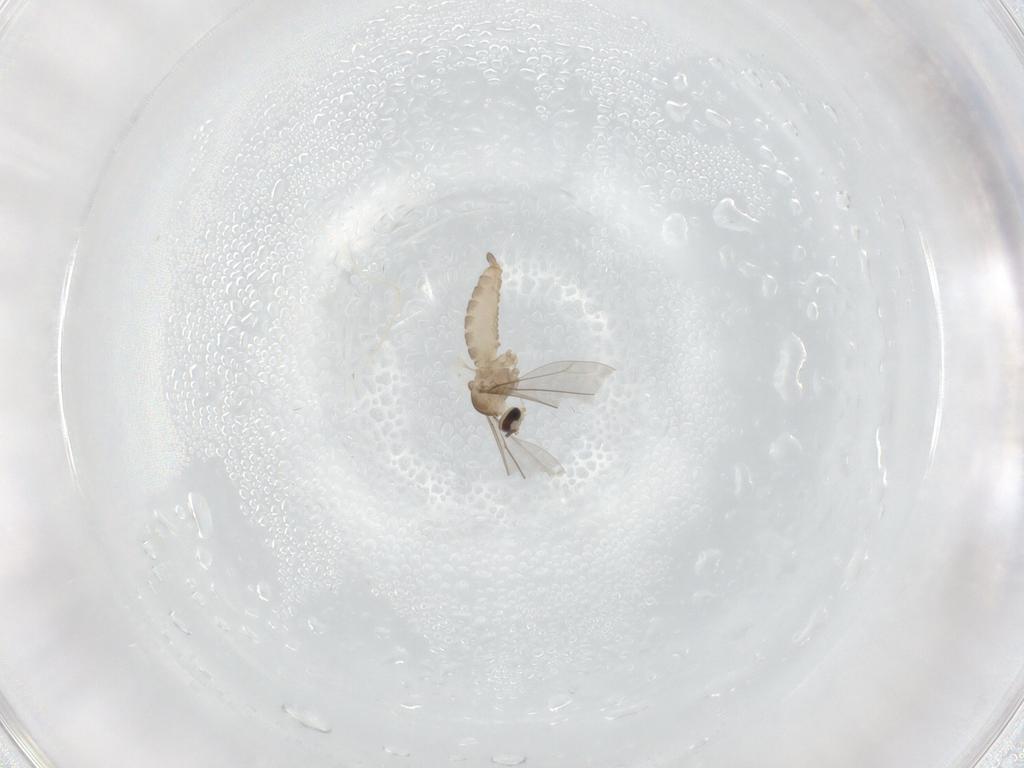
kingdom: Animalia
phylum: Arthropoda
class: Insecta
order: Diptera
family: Cecidomyiidae
